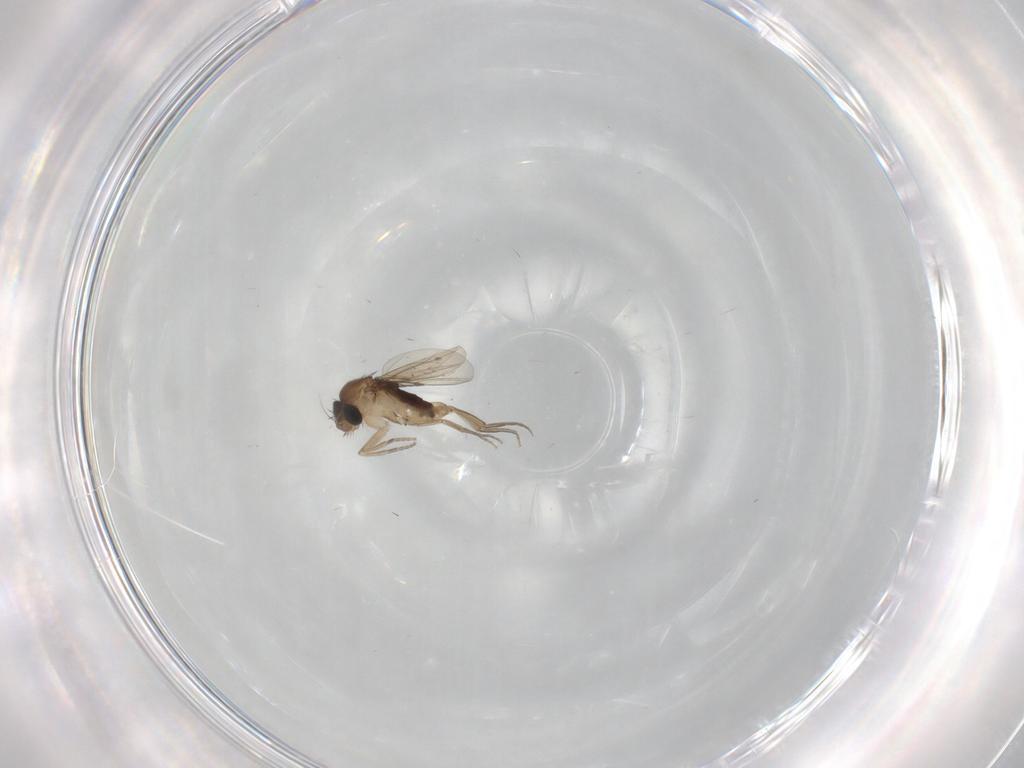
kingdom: Animalia
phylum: Arthropoda
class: Insecta
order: Diptera
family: Phoridae
